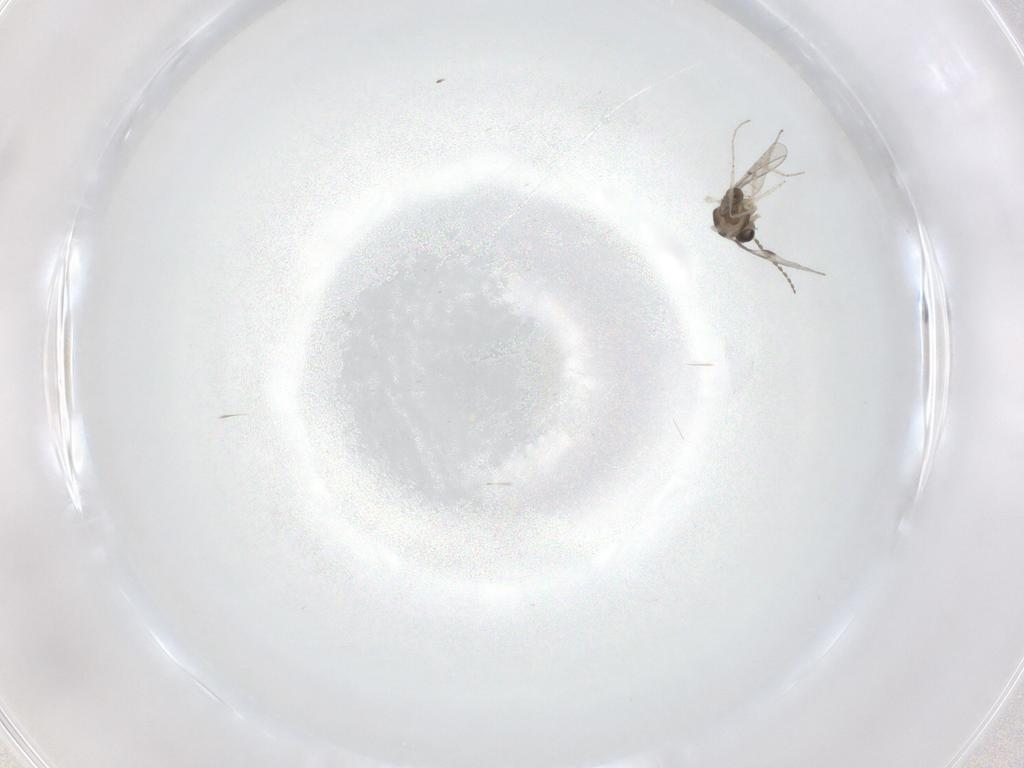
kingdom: Animalia
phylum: Arthropoda
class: Insecta
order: Diptera
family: Cecidomyiidae
